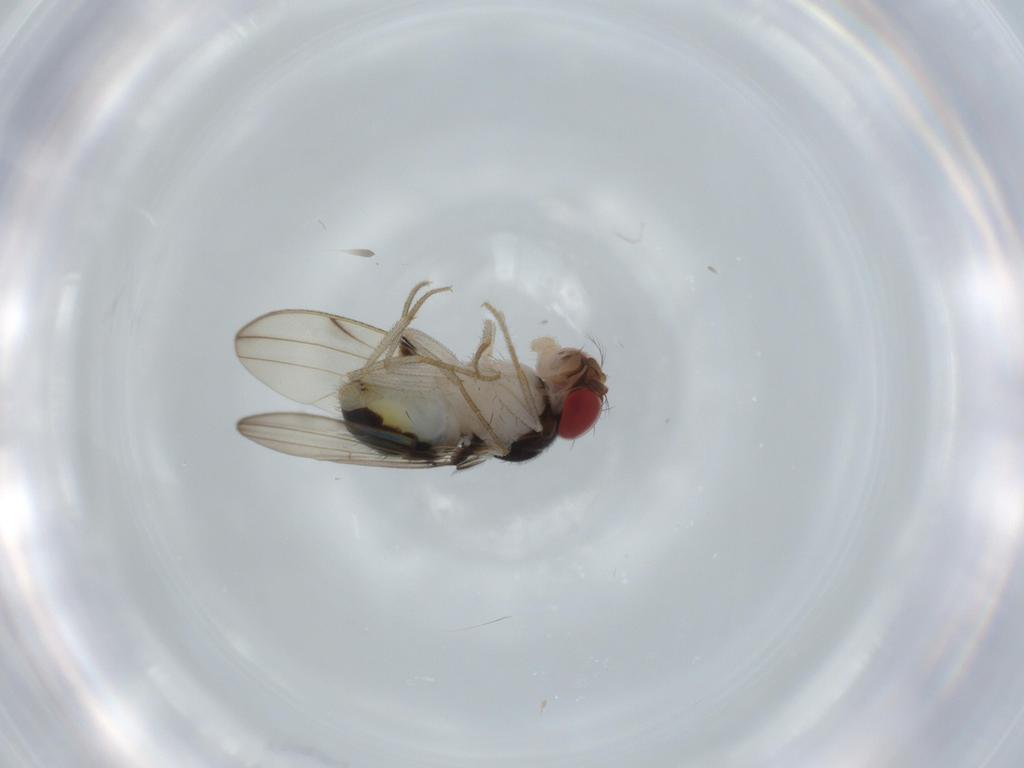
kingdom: Animalia
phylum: Arthropoda
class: Insecta
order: Diptera
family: Drosophilidae
